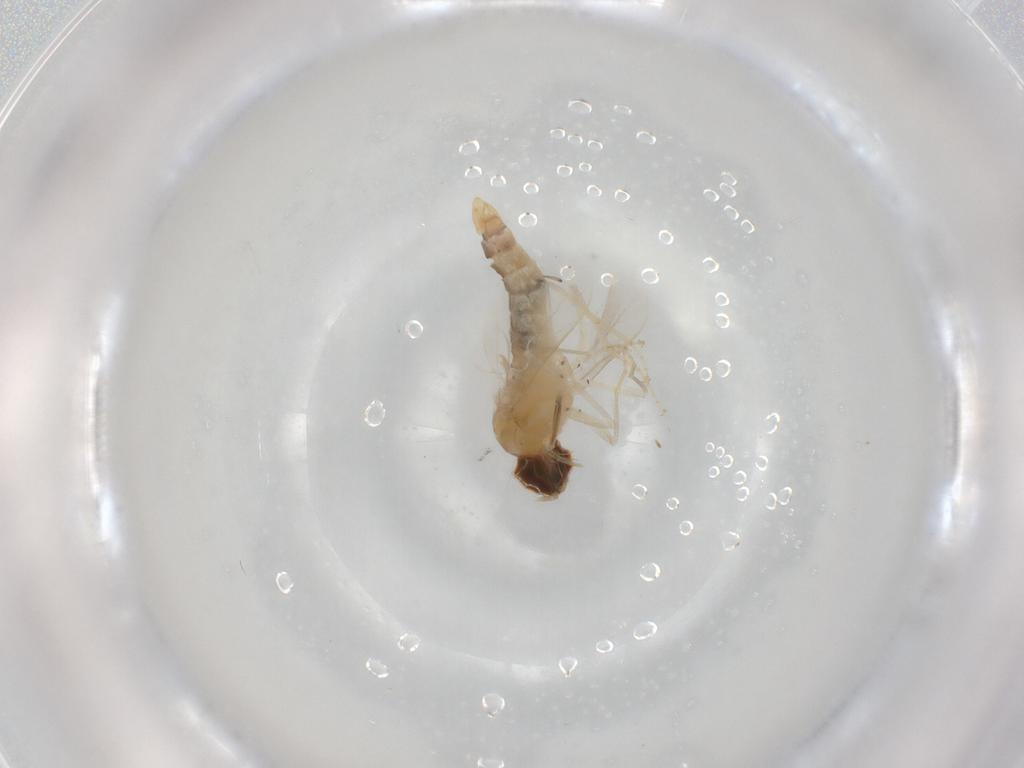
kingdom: Animalia
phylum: Arthropoda
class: Insecta
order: Diptera
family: Scenopinidae
